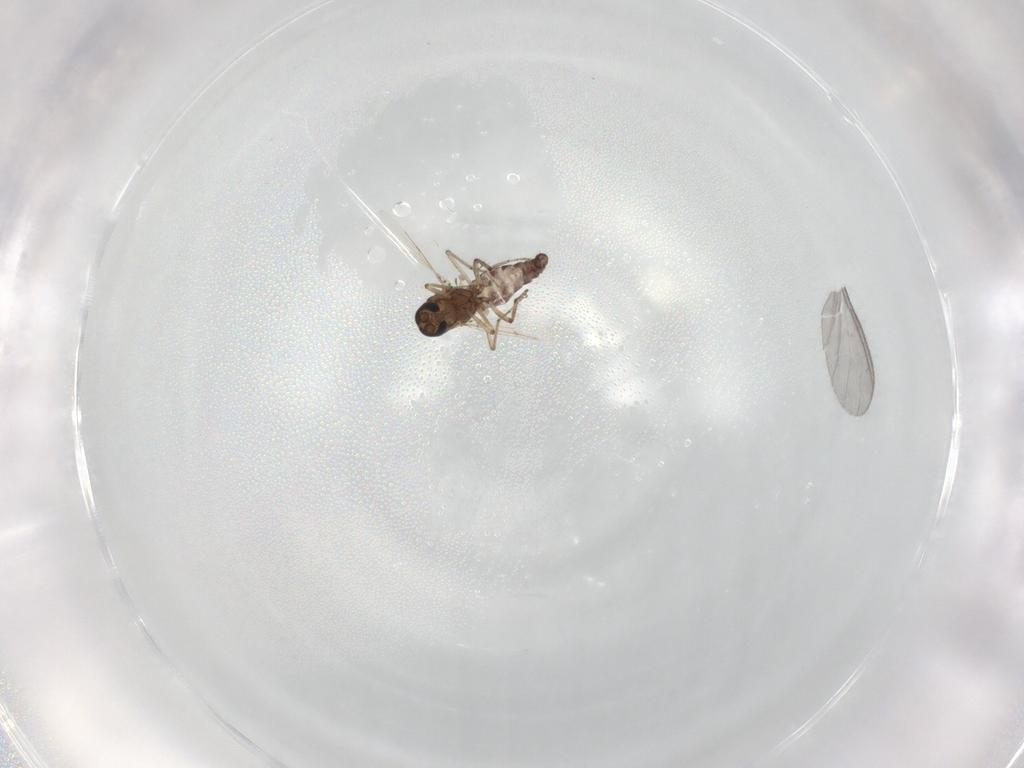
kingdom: Animalia
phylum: Arthropoda
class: Insecta
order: Diptera
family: Ceratopogonidae
